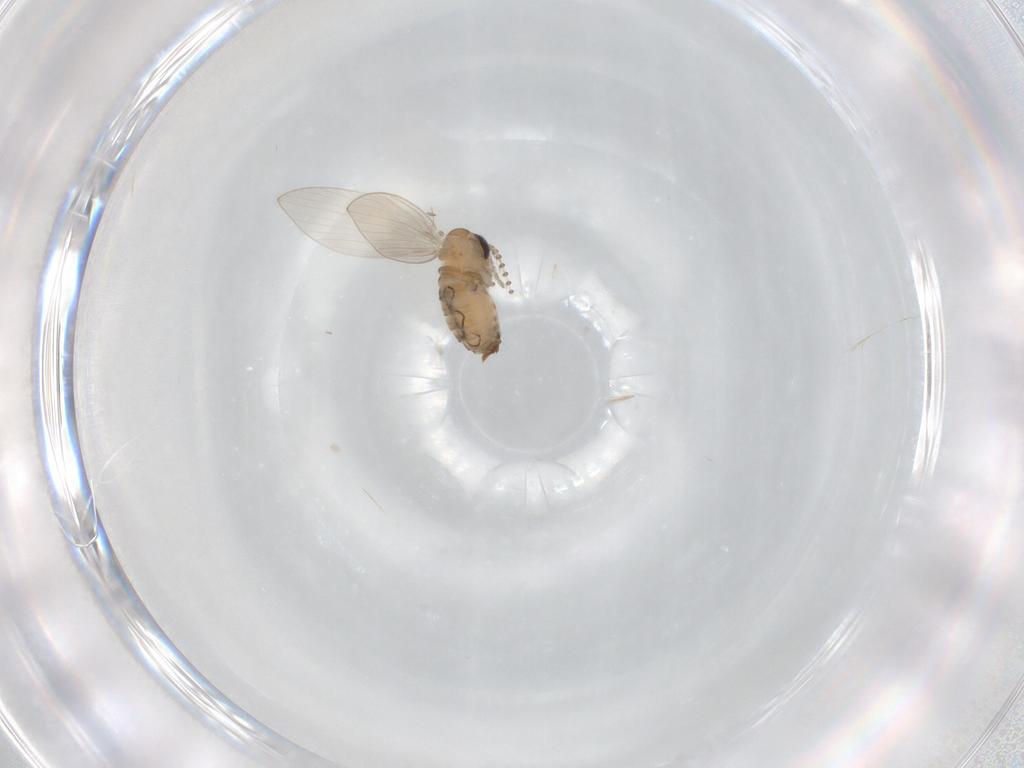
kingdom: Animalia
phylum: Arthropoda
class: Insecta
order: Diptera
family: Psychodidae
